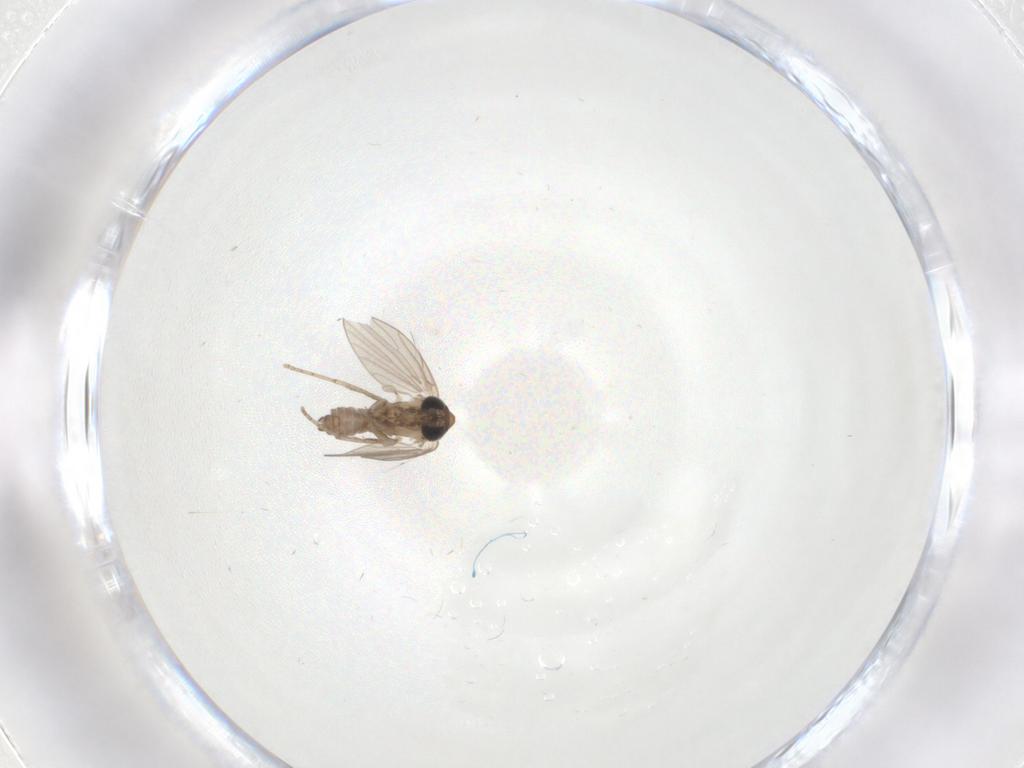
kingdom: Animalia
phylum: Arthropoda
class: Insecta
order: Diptera
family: Psychodidae
